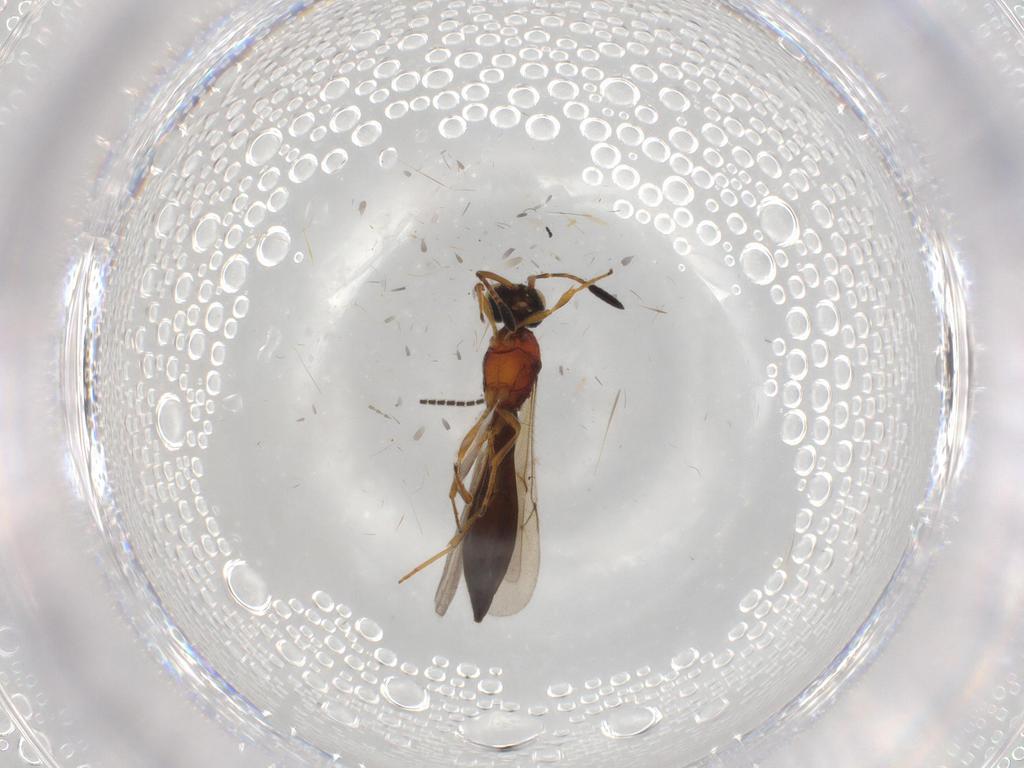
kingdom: Animalia
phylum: Arthropoda
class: Insecta
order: Hymenoptera
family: Scelionidae
